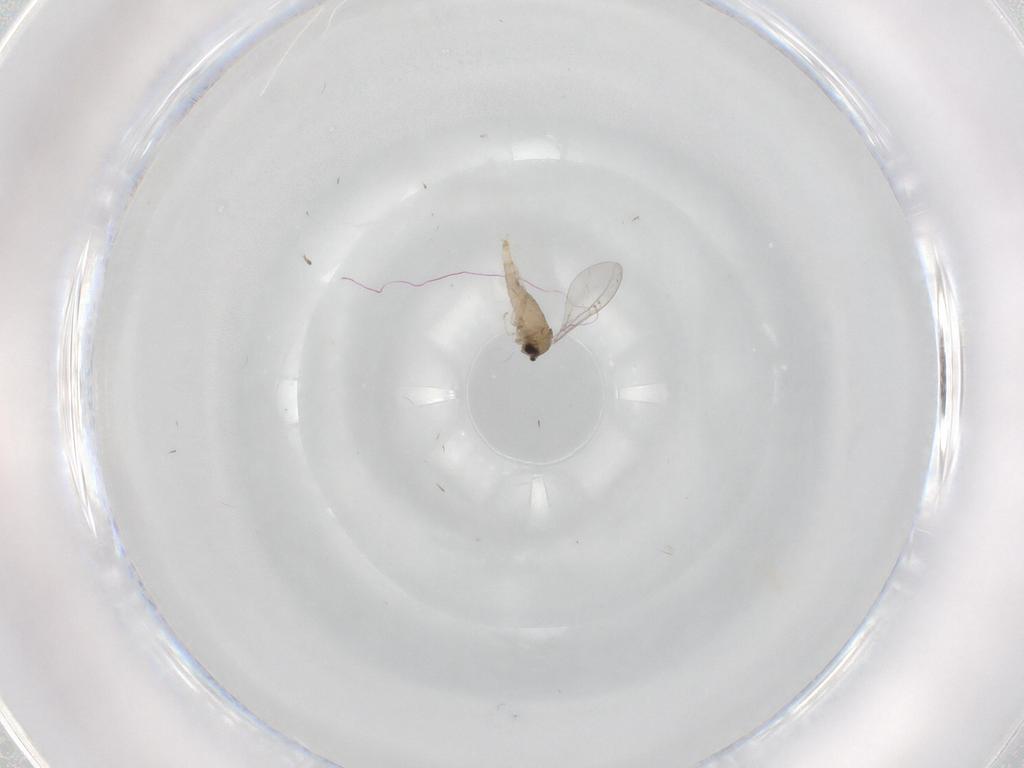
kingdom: Animalia
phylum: Arthropoda
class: Insecta
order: Diptera
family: Cecidomyiidae
